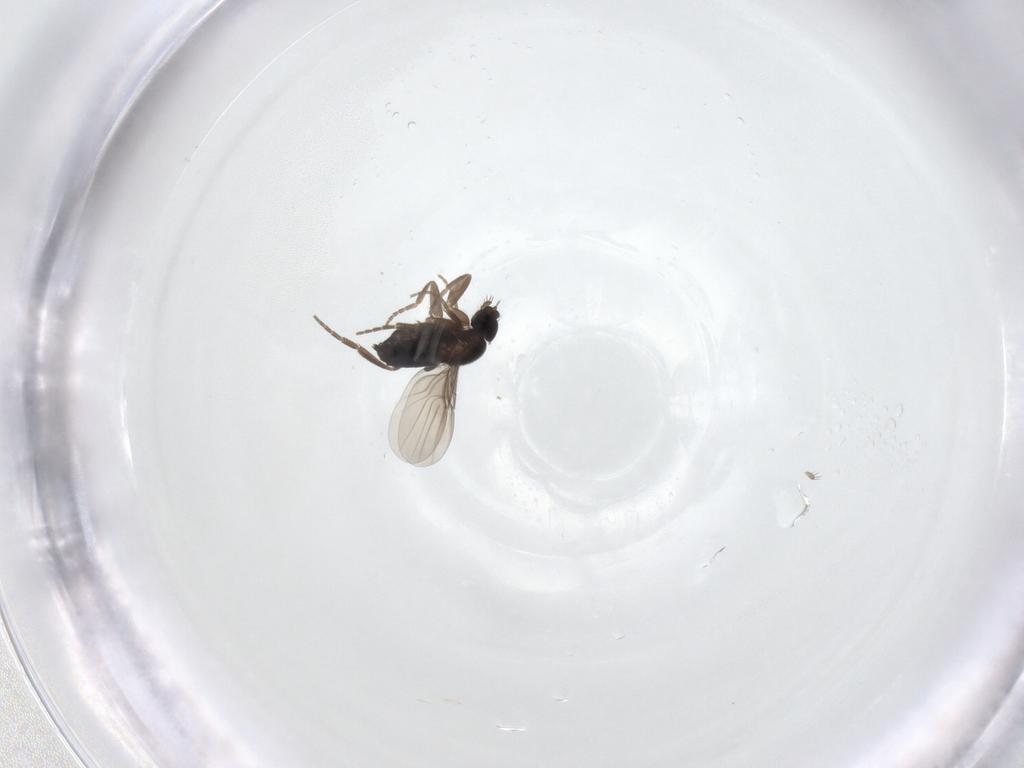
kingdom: Animalia
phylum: Arthropoda
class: Insecta
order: Diptera
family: Phoridae
